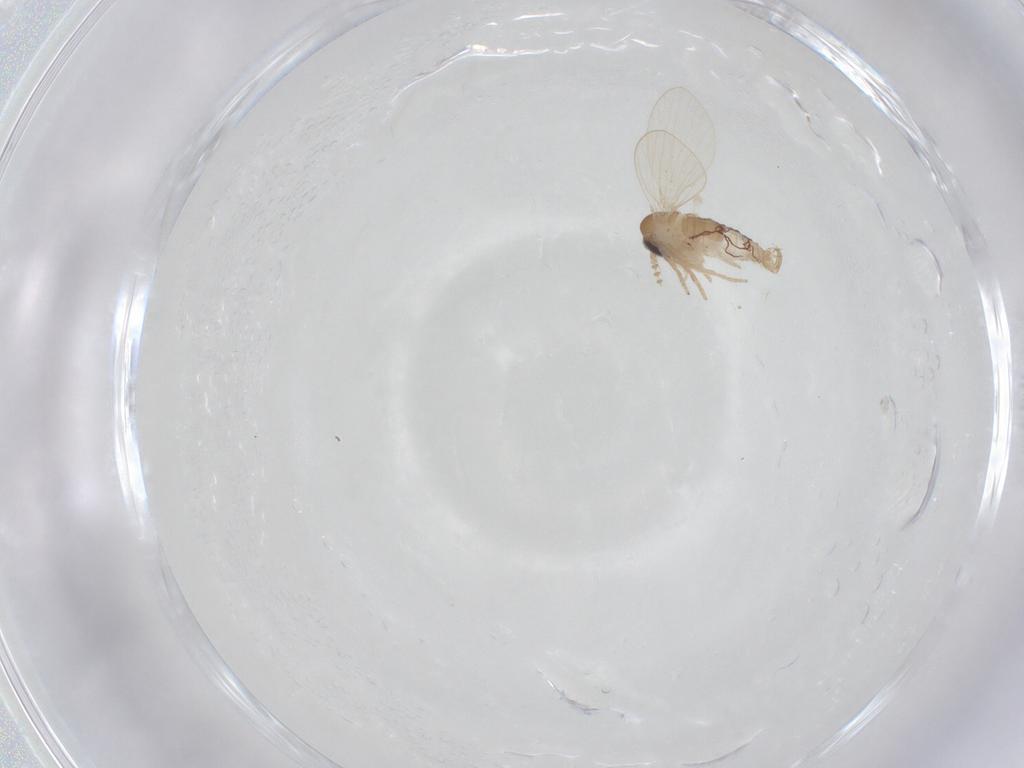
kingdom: Animalia
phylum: Arthropoda
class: Insecta
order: Diptera
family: Psychodidae
